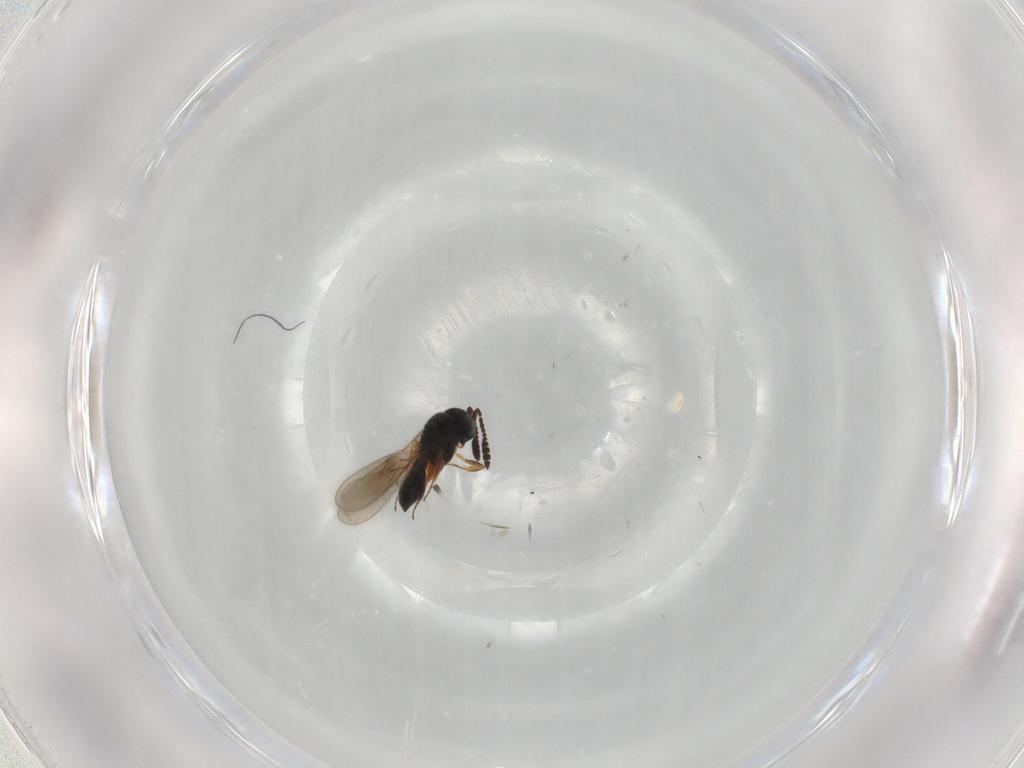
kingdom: Animalia
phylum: Arthropoda
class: Insecta
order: Hymenoptera
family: Scelionidae
